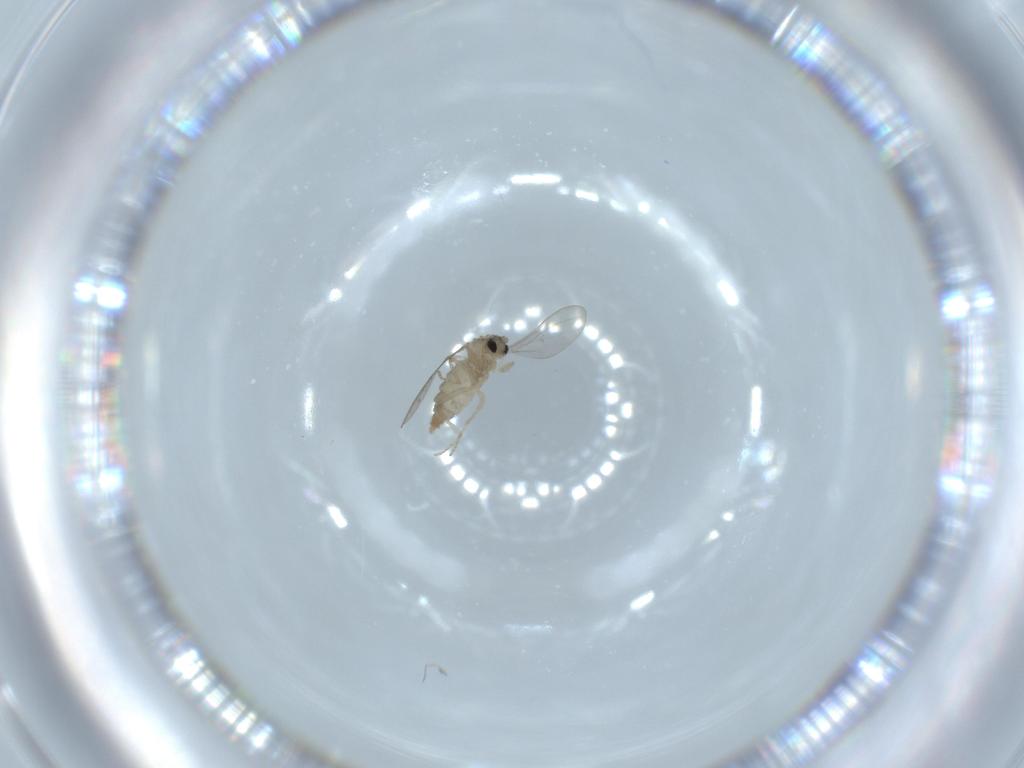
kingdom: Animalia
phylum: Arthropoda
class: Insecta
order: Diptera
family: Cecidomyiidae
